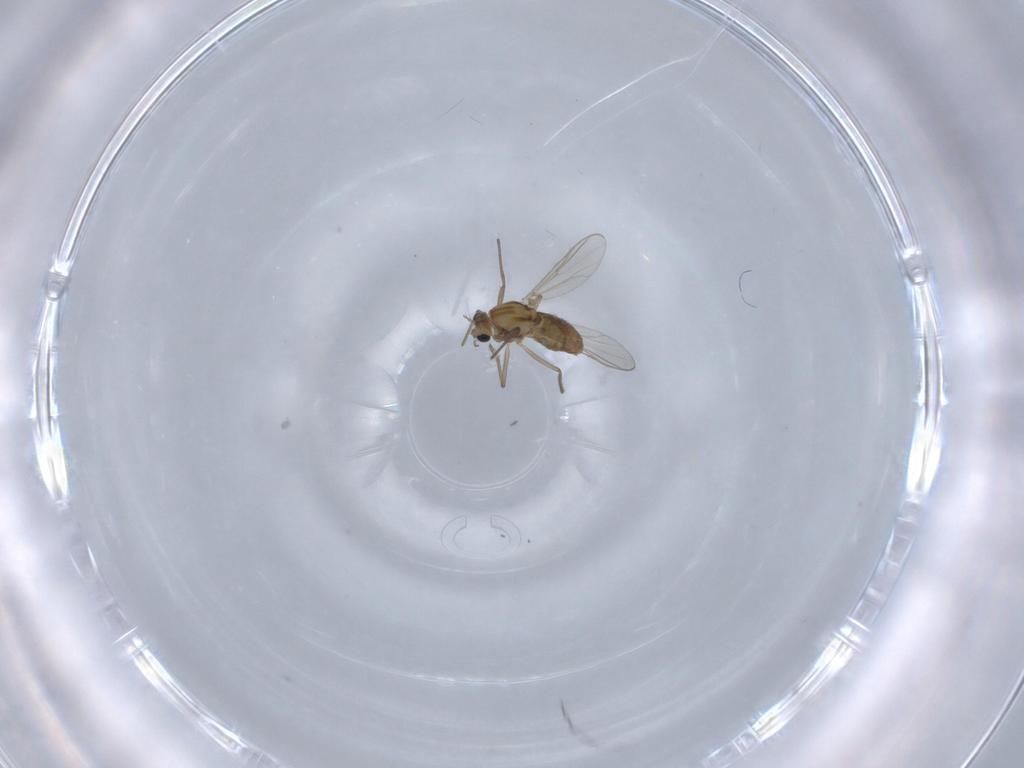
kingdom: Animalia
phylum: Arthropoda
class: Insecta
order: Diptera
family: Chironomidae
